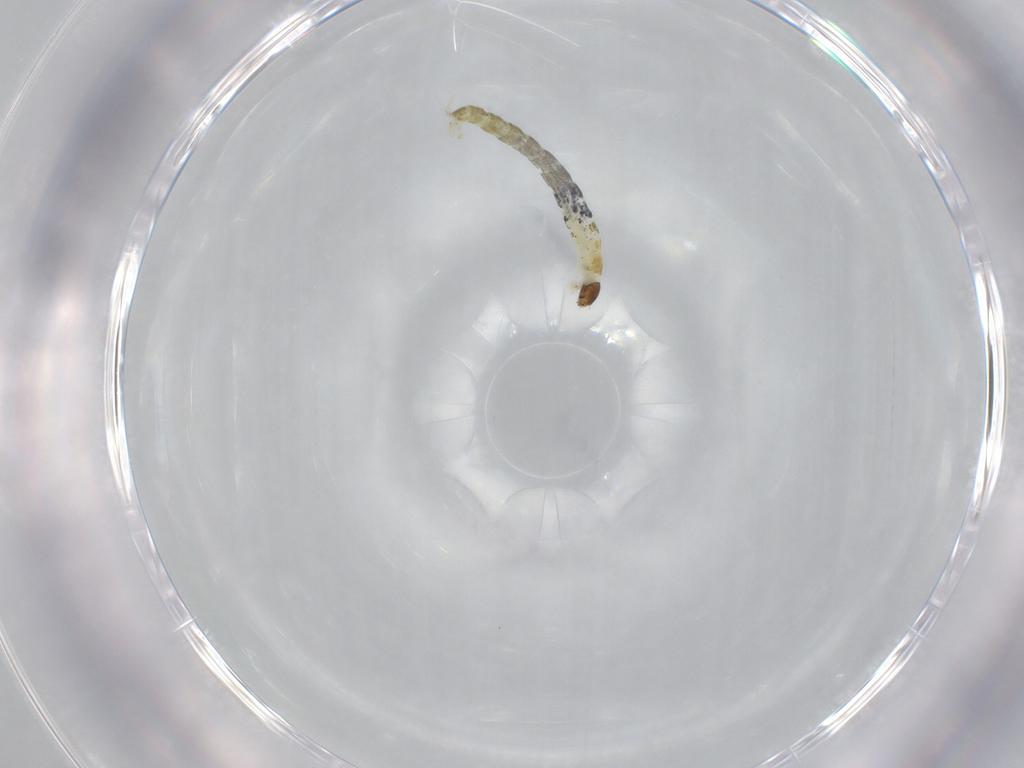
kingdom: Animalia
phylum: Arthropoda
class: Insecta
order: Diptera
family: Chironomidae
